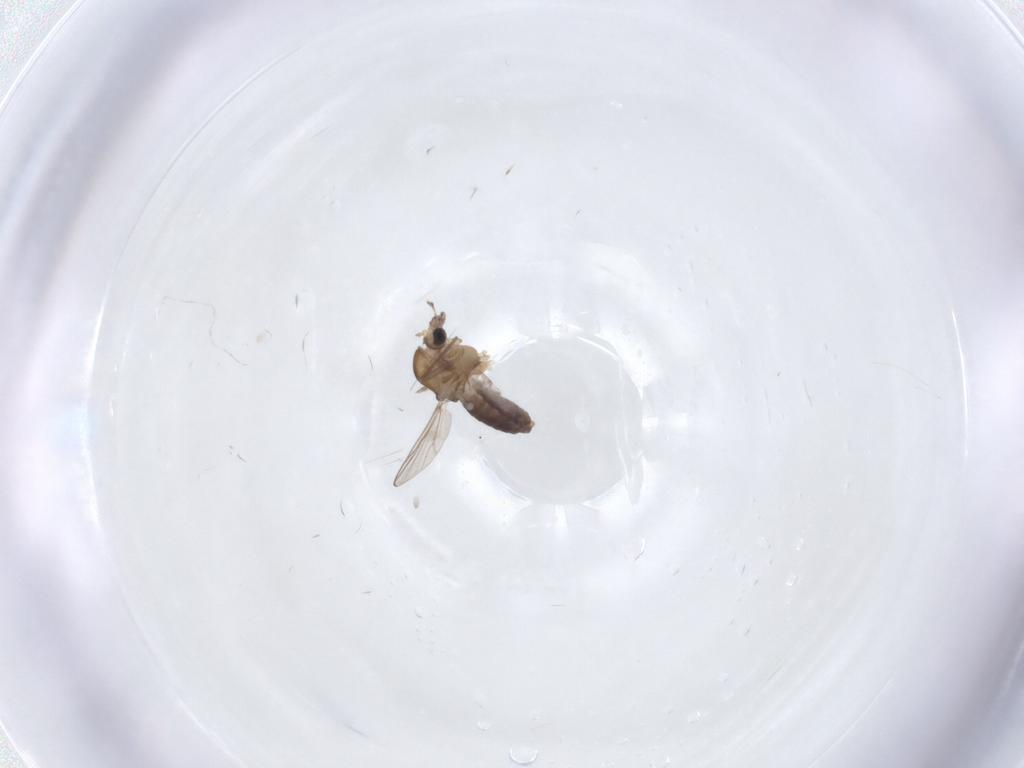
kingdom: Animalia
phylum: Arthropoda
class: Insecta
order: Diptera
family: Chironomidae
